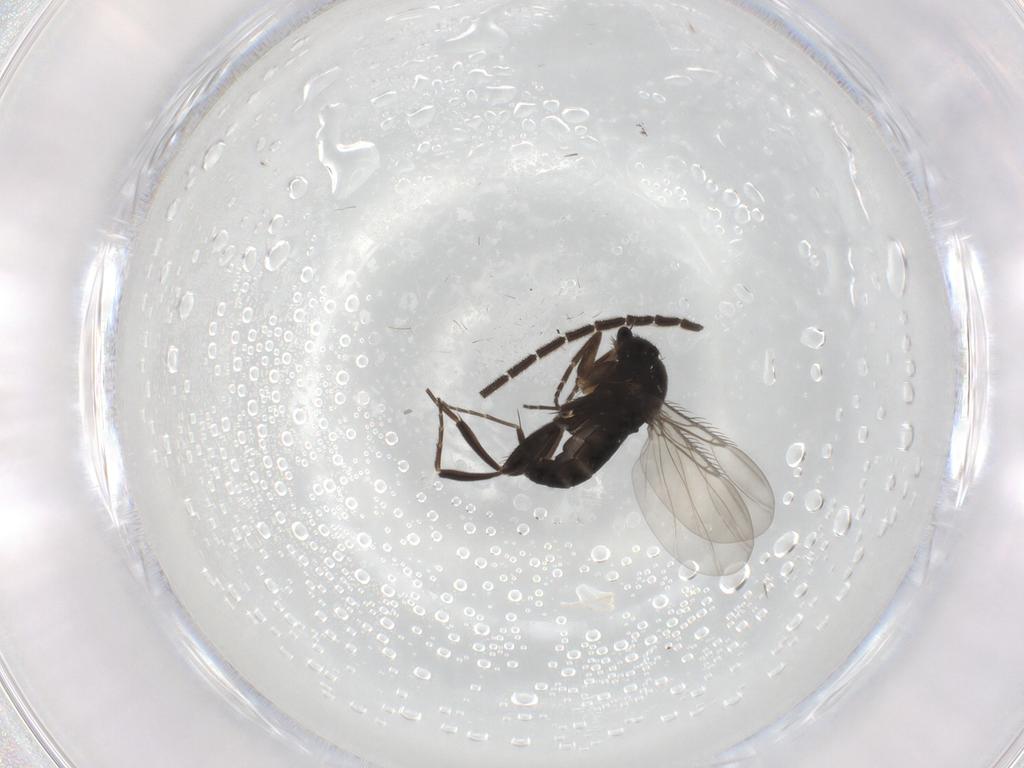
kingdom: Animalia
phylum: Arthropoda
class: Insecta
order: Diptera
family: Phoridae
